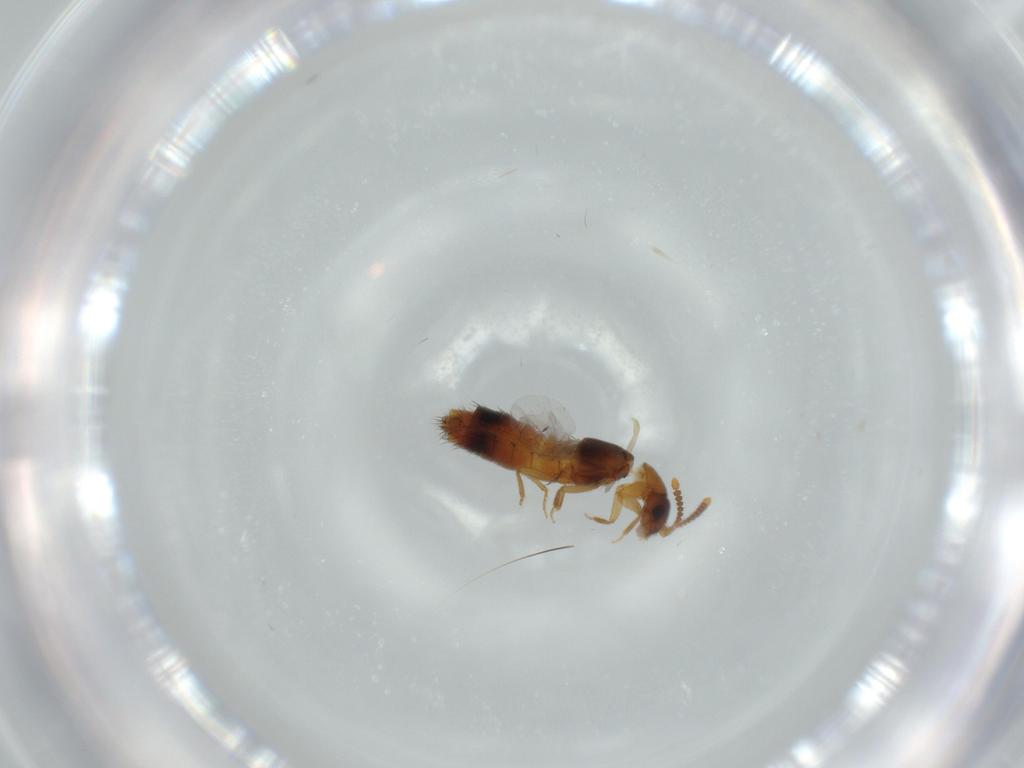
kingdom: Animalia
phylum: Arthropoda
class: Insecta
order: Coleoptera
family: Staphylinidae
